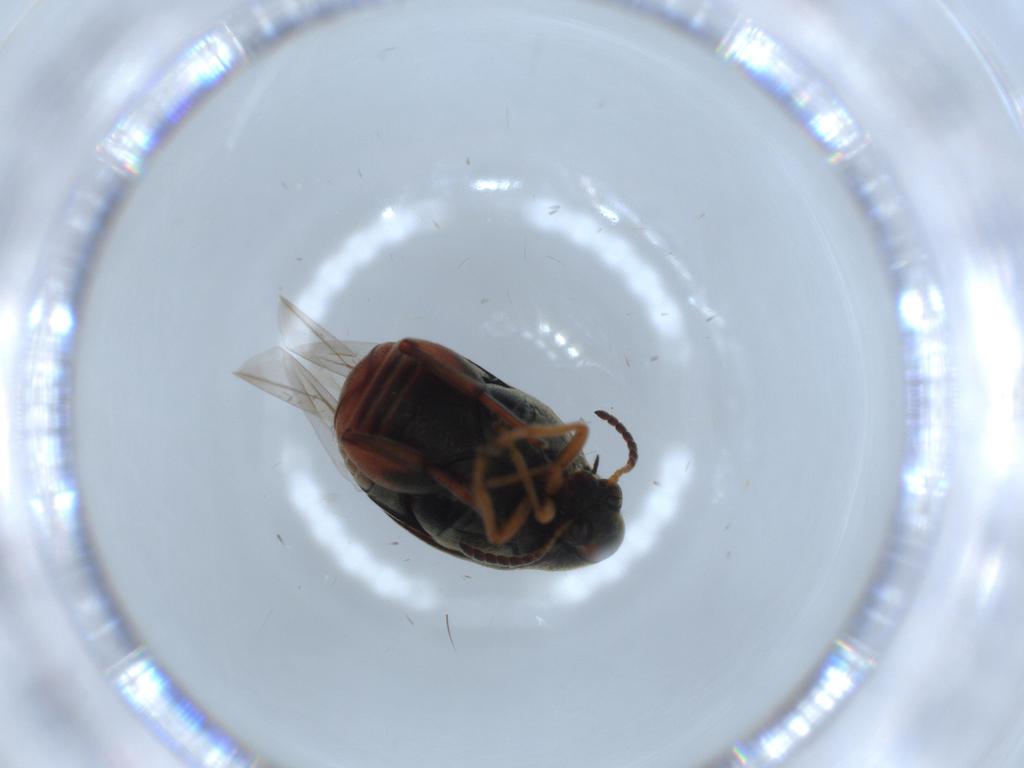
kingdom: Animalia
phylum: Arthropoda
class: Insecta
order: Coleoptera
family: Chrysomelidae
